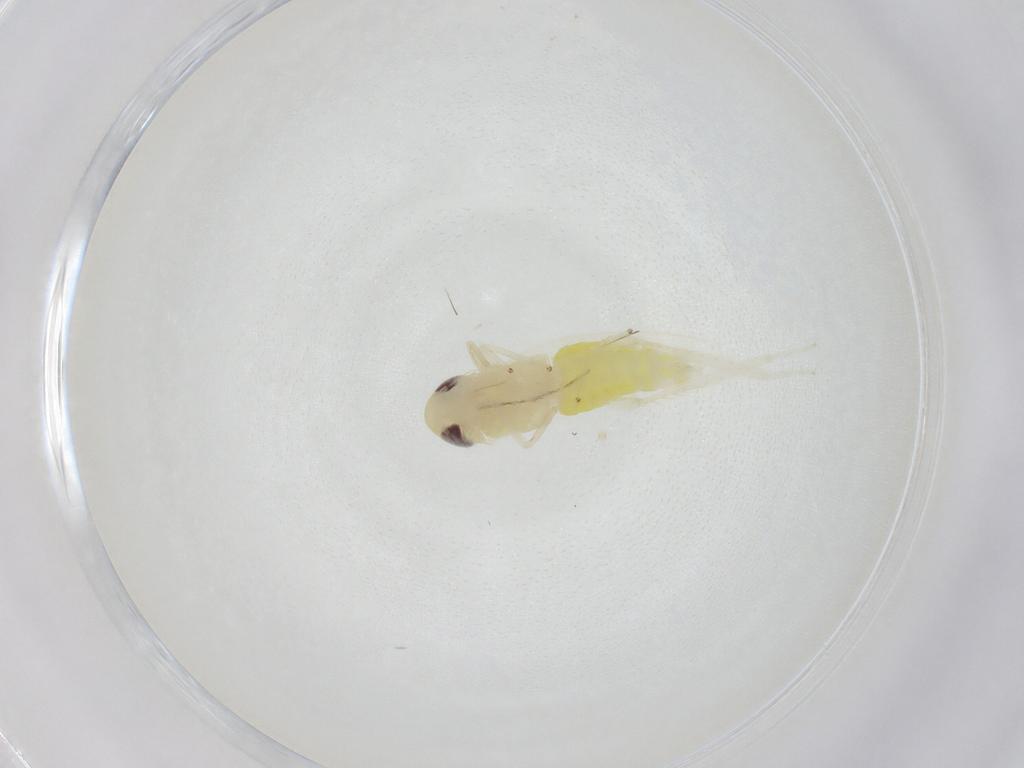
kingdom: Animalia
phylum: Arthropoda
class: Insecta
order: Hemiptera
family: Cicadellidae
